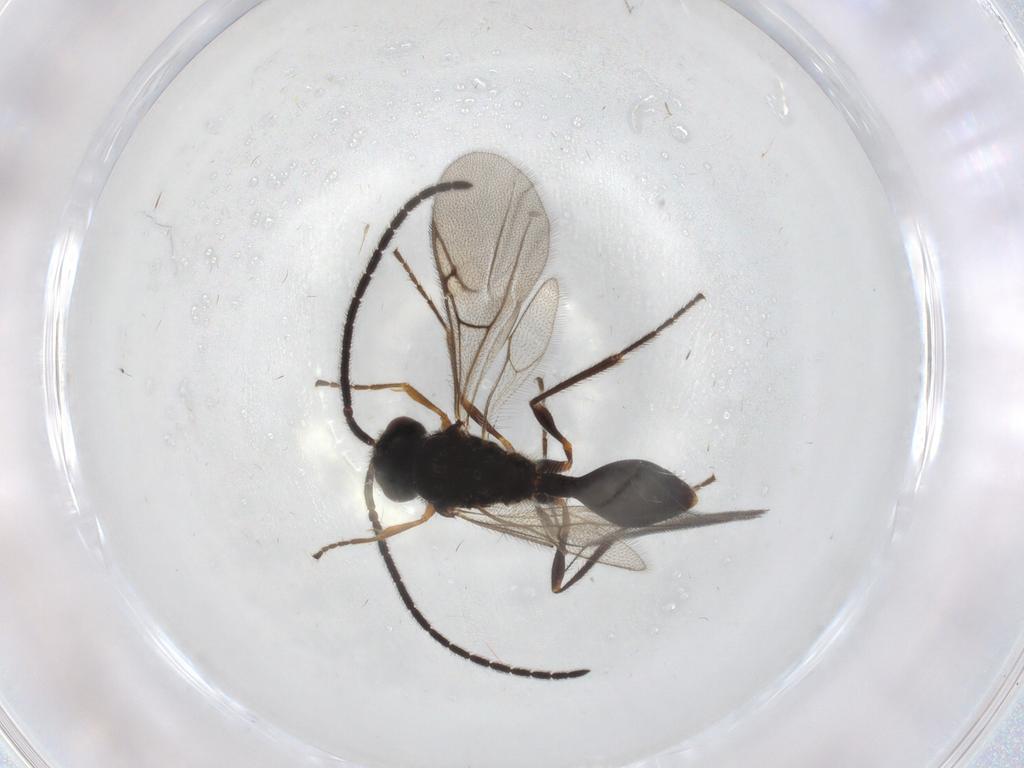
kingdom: Animalia
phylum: Arthropoda
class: Insecta
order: Hymenoptera
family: Diapriidae
